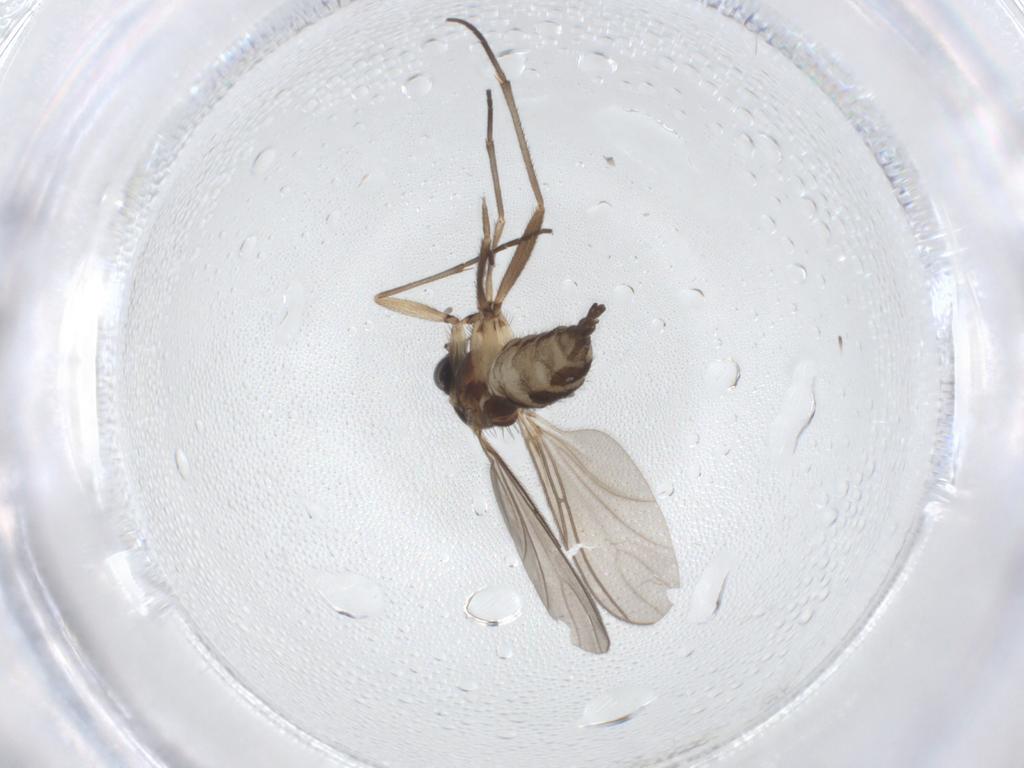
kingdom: Animalia
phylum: Arthropoda
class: Insecta
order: Diptera
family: Sciaridae
